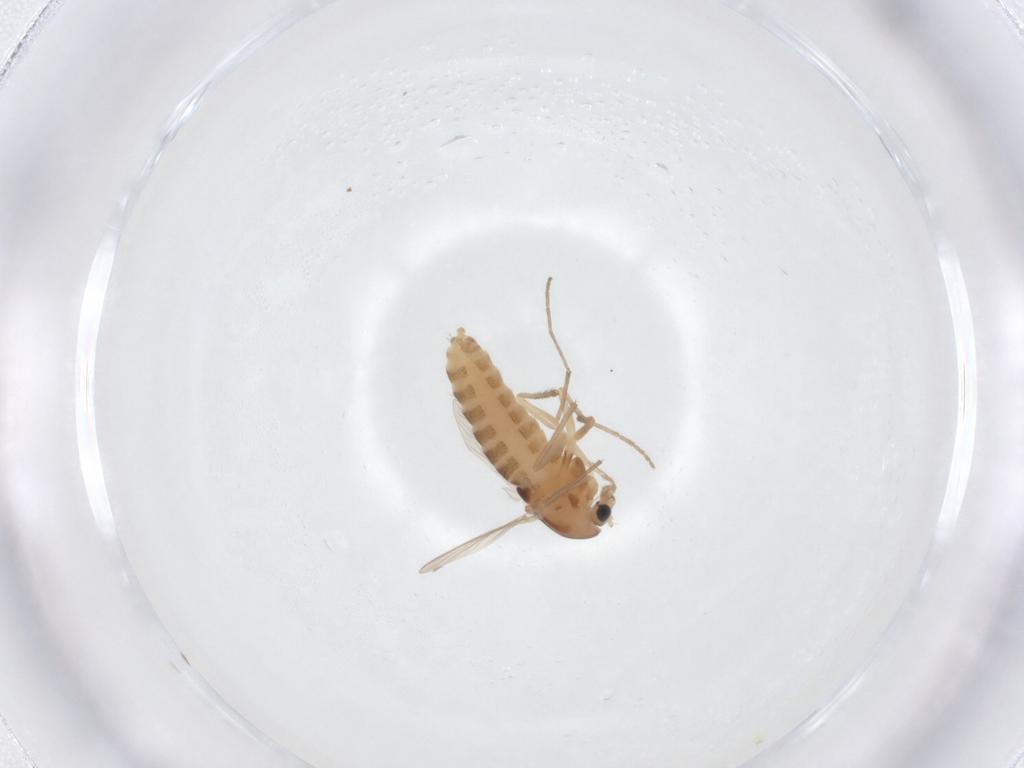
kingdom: Animalia
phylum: Arthropoda
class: Insecta
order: Diptera
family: Chironomidae
